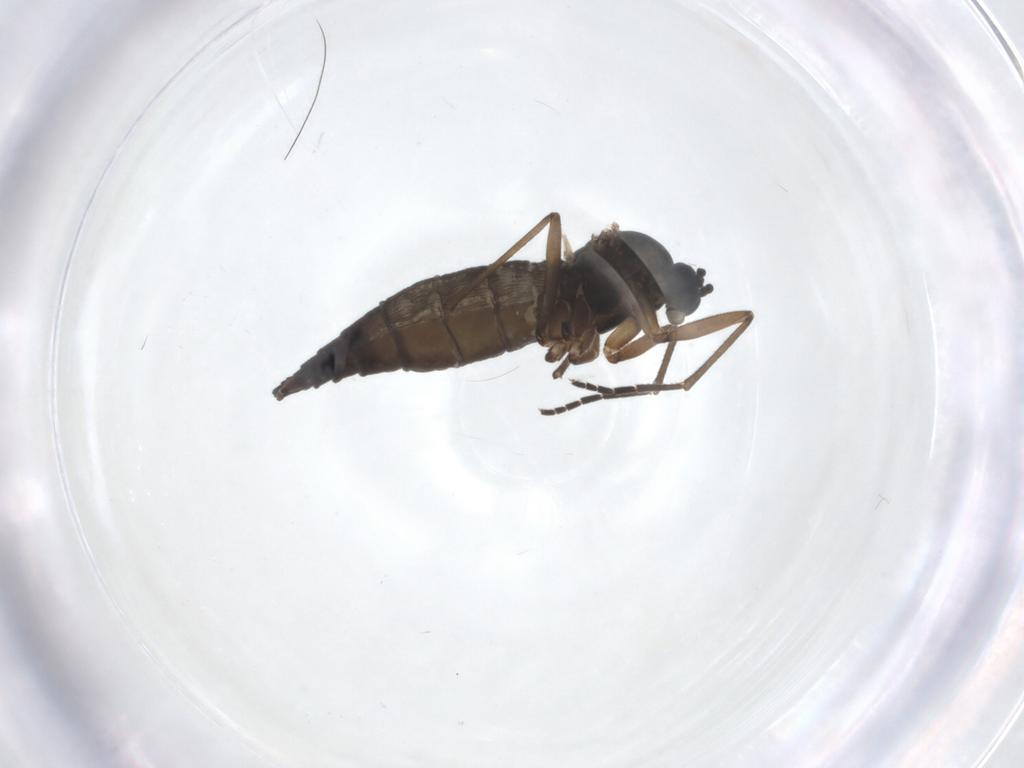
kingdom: Animalia
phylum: Arthropoda
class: Insecta
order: Diptera
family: Sciaridae
